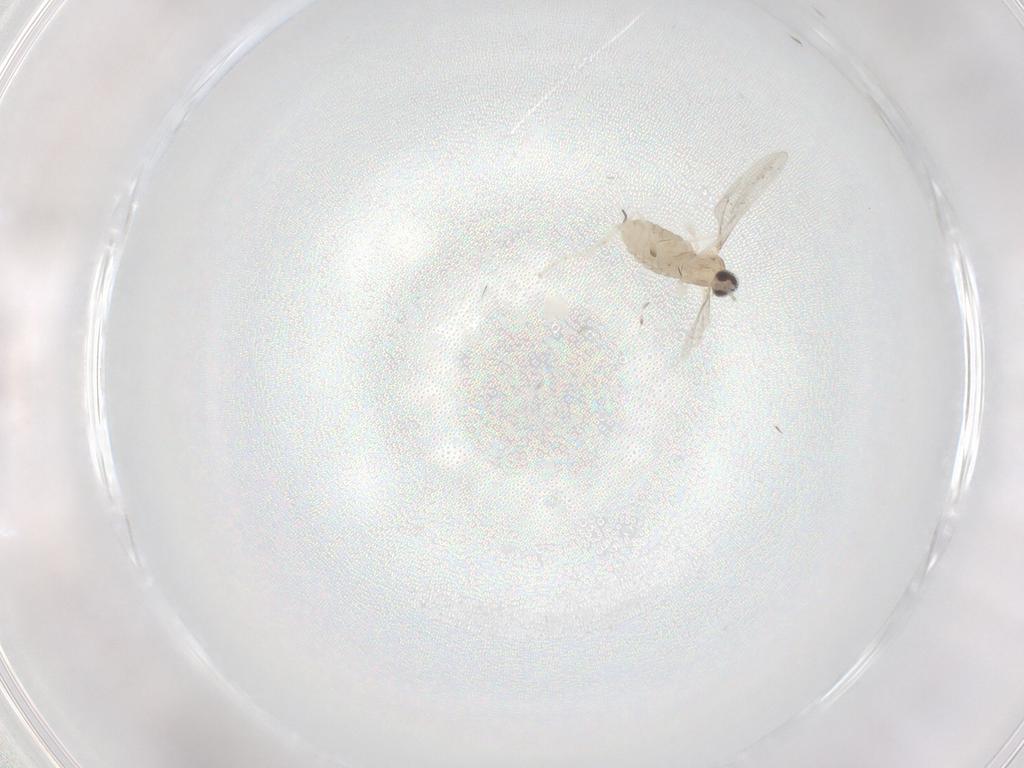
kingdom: Animalia
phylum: Arthropoda
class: Insecta
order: Diptera
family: Cecidomyiidae
